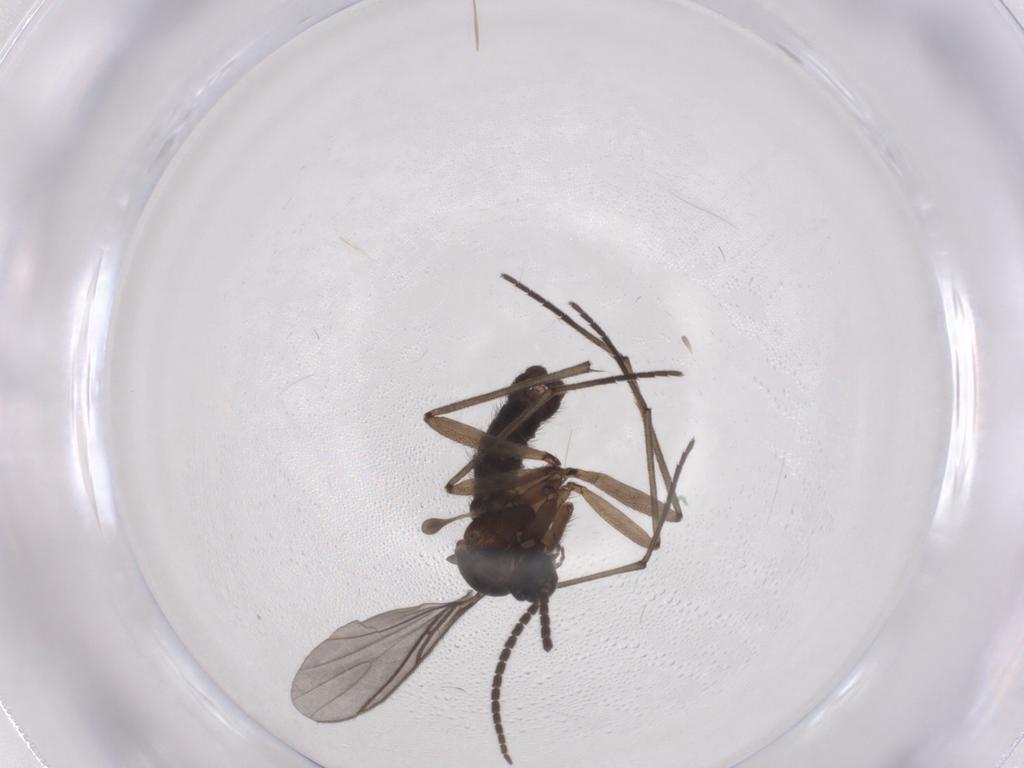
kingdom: Animalia
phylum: Arthropoda
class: Insecta
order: Diptera
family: Sciaridae
